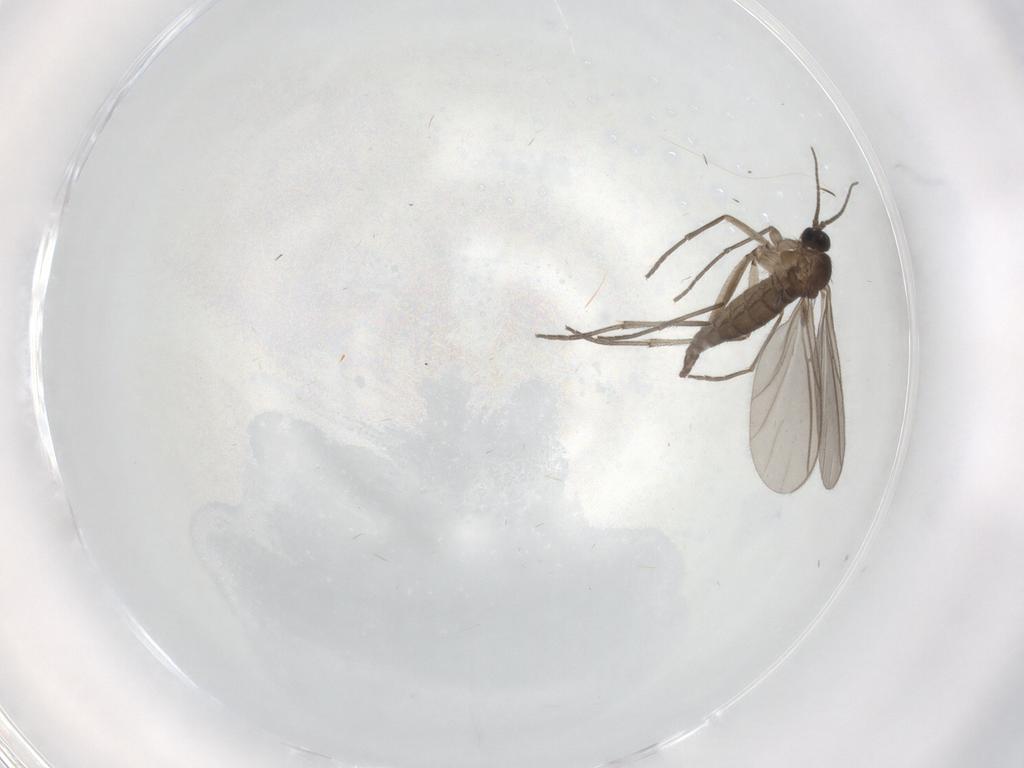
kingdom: Animalia
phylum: Arthropoda
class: Insecta
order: Diptera
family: Sciaridae
